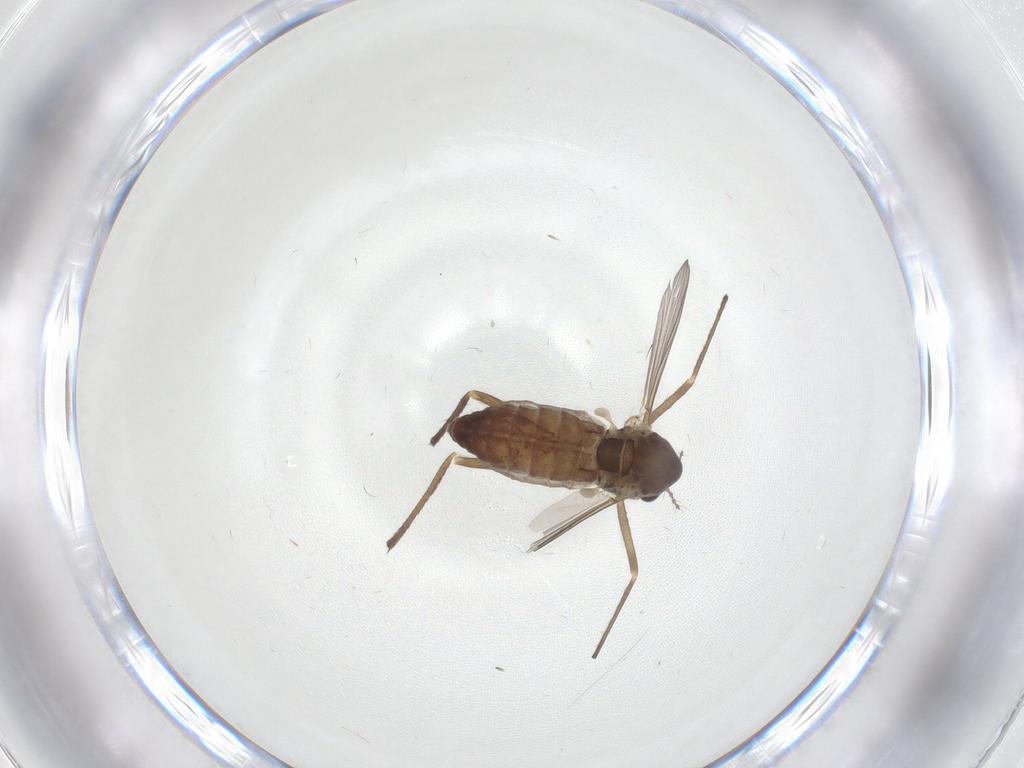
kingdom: Animalia
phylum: Arthropoda
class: Insecta
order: Diptera
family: Chironomidae
